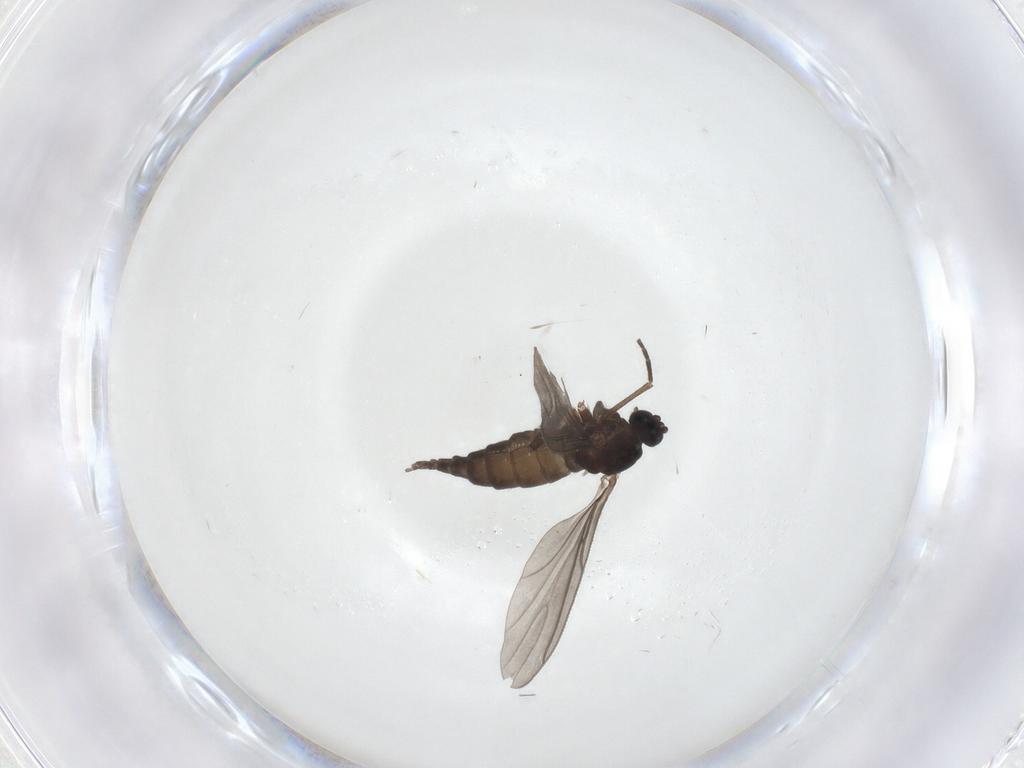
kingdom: Animalia
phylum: Arthropoda
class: Insecta
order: Diptera
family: Sciaridae
